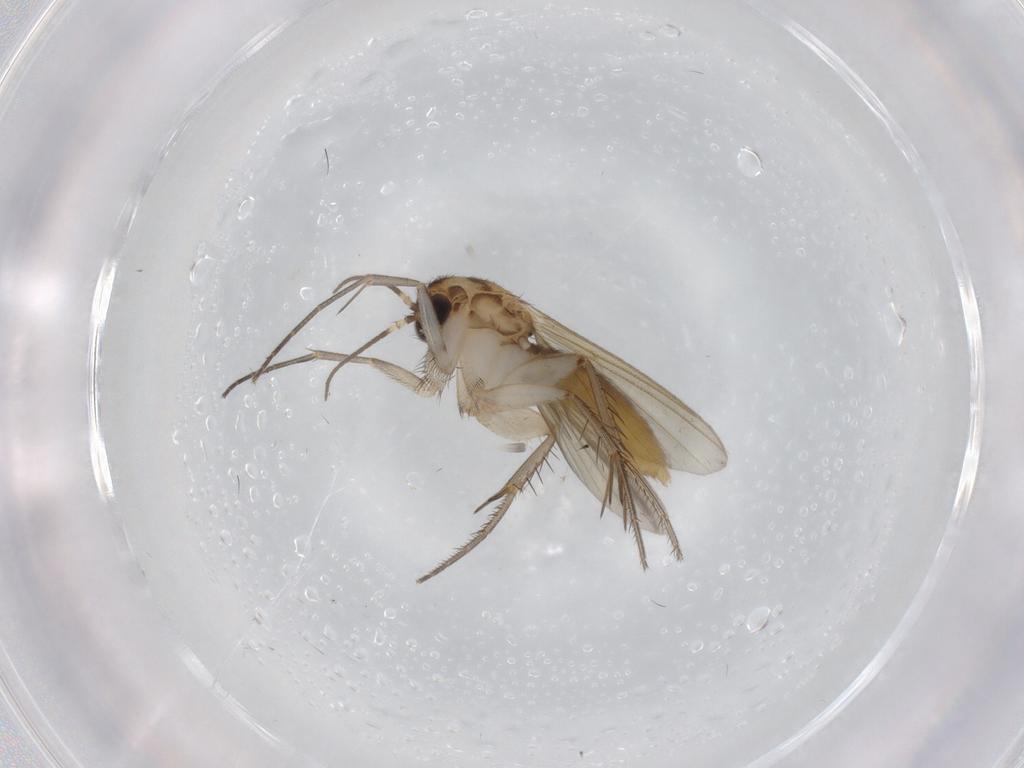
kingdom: Animalia
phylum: Arthropoda
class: Insecta
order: Diptera
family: Mycetophilidae
